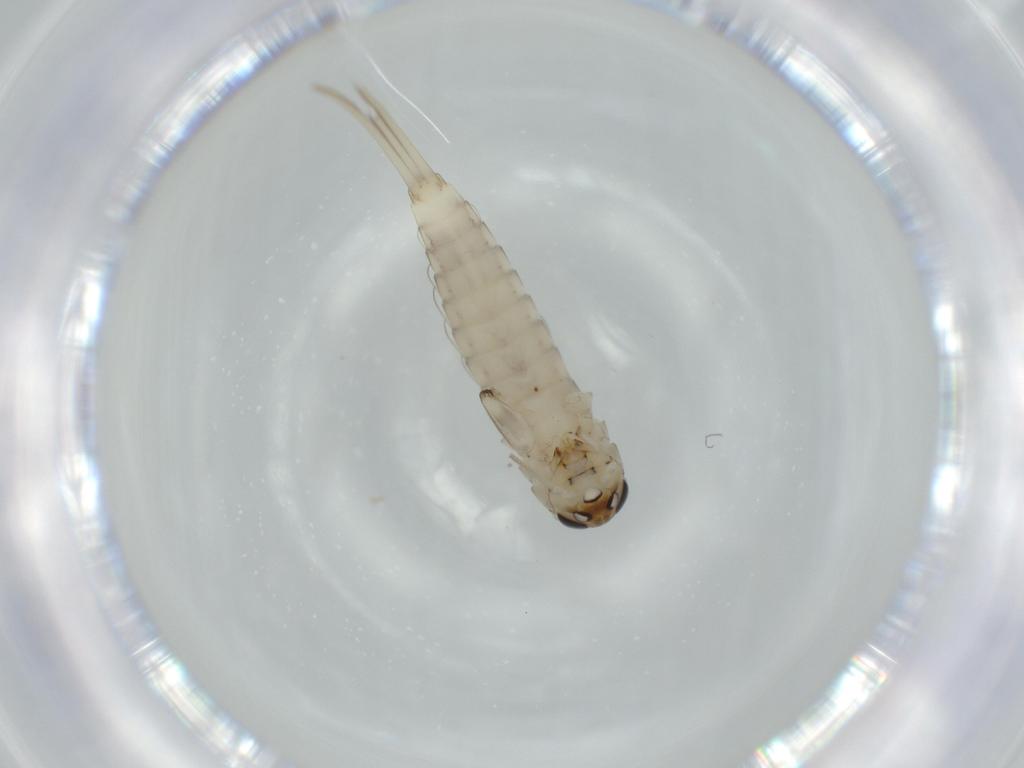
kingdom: Animalia
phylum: Arthropoda
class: Insecta
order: Ephemeroptera
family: Baetidae
